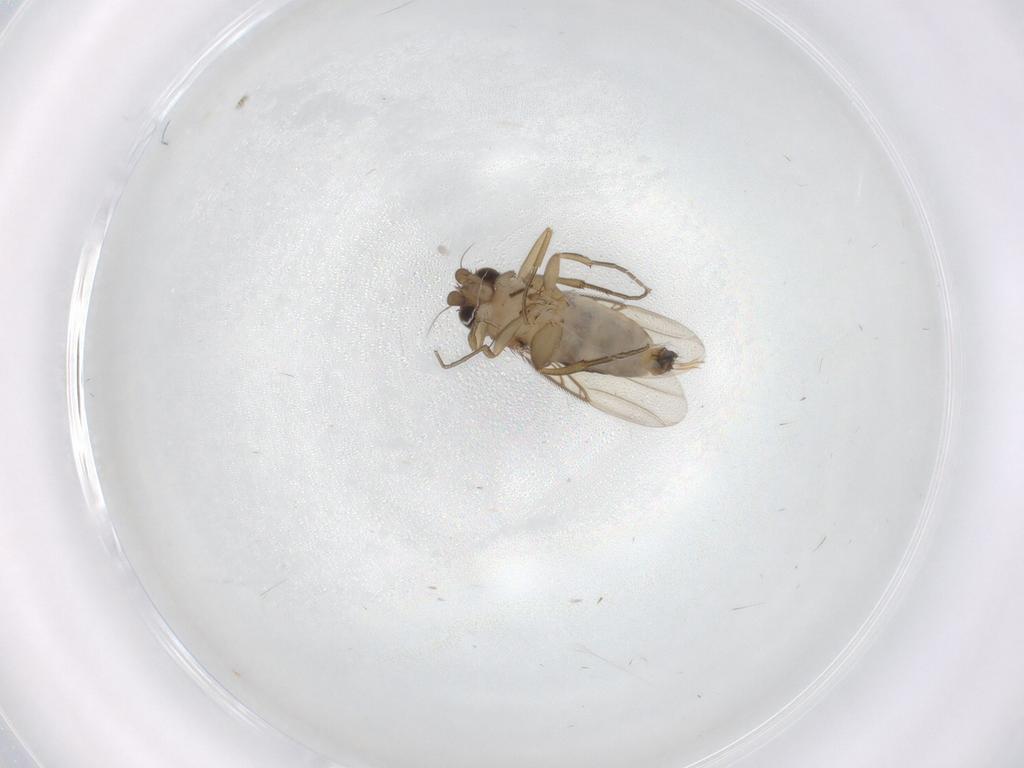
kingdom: Animalia
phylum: Arthropoda
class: Insecta
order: Diptera
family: Phoridae
